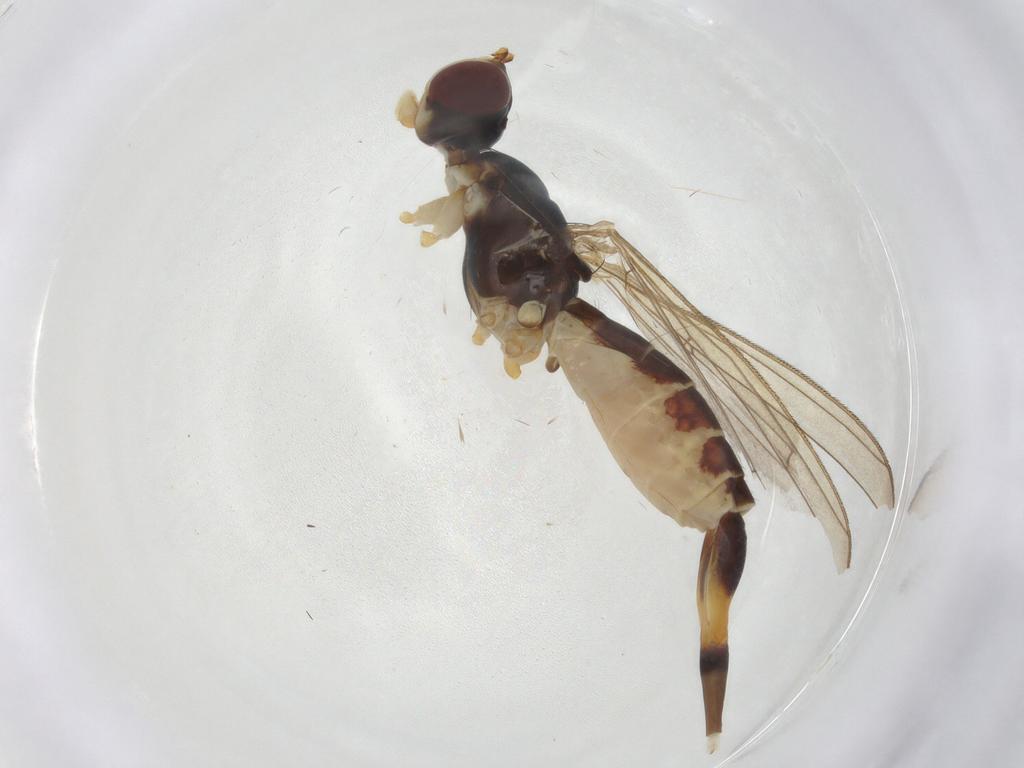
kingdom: Animalia
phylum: Arthropoda
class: Insecta
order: Diptera
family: Micropezidae
